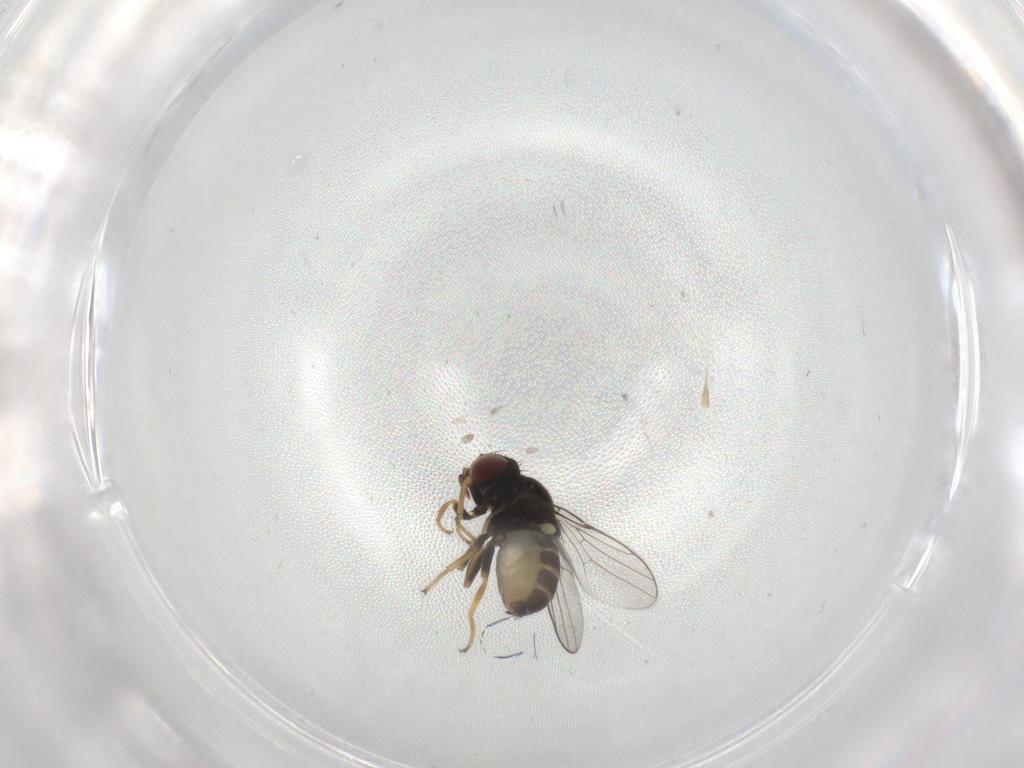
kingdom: Animalia
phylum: Arthropoda
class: Insecta
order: Diptera
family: Chloropidae
